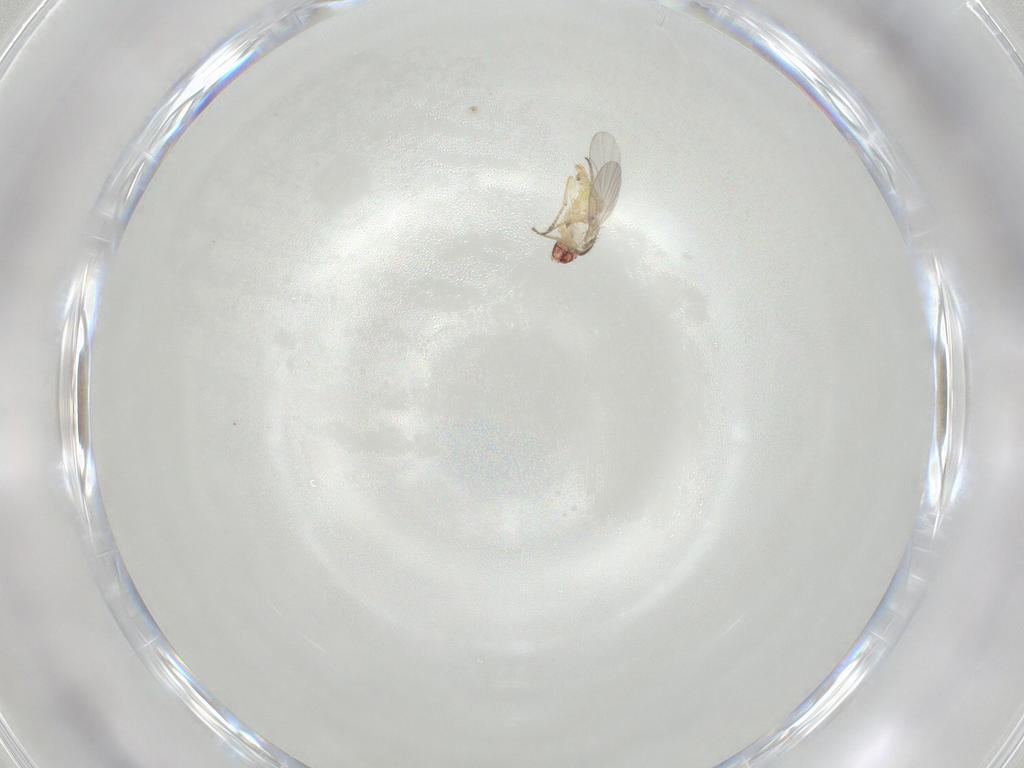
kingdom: Animalia
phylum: Arthropoda
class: Insecta
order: Diptera
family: Agromyzidae
